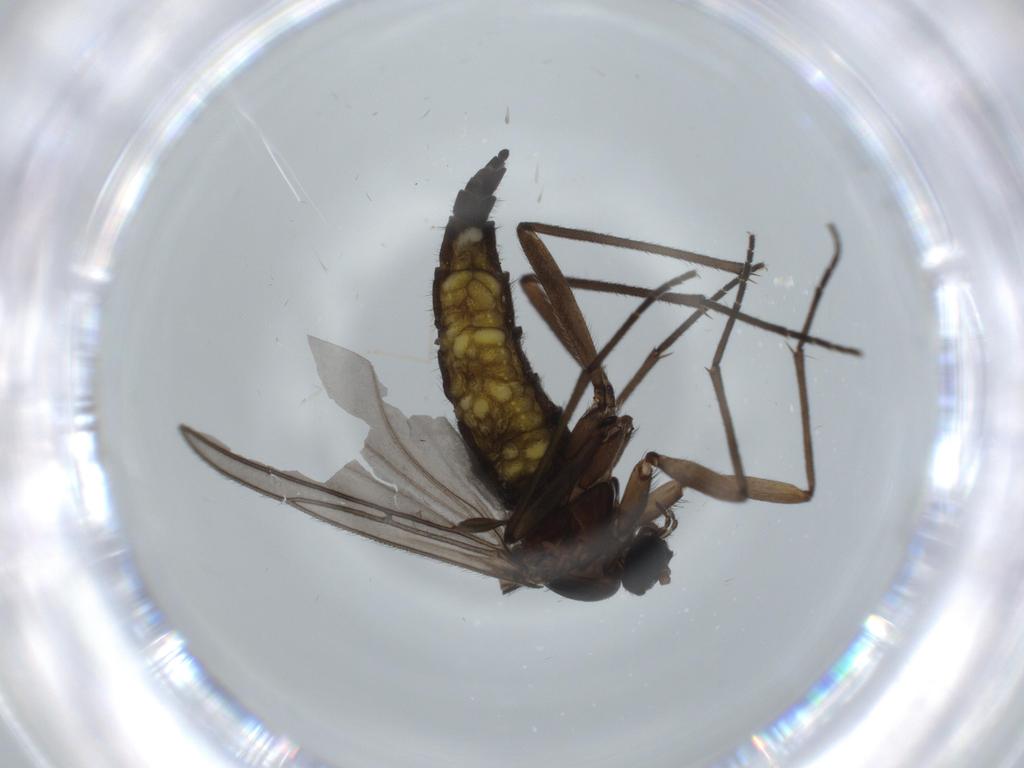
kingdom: Animalia
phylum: Arthropoda
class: Insecta
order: Diptera
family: Sciaridae
